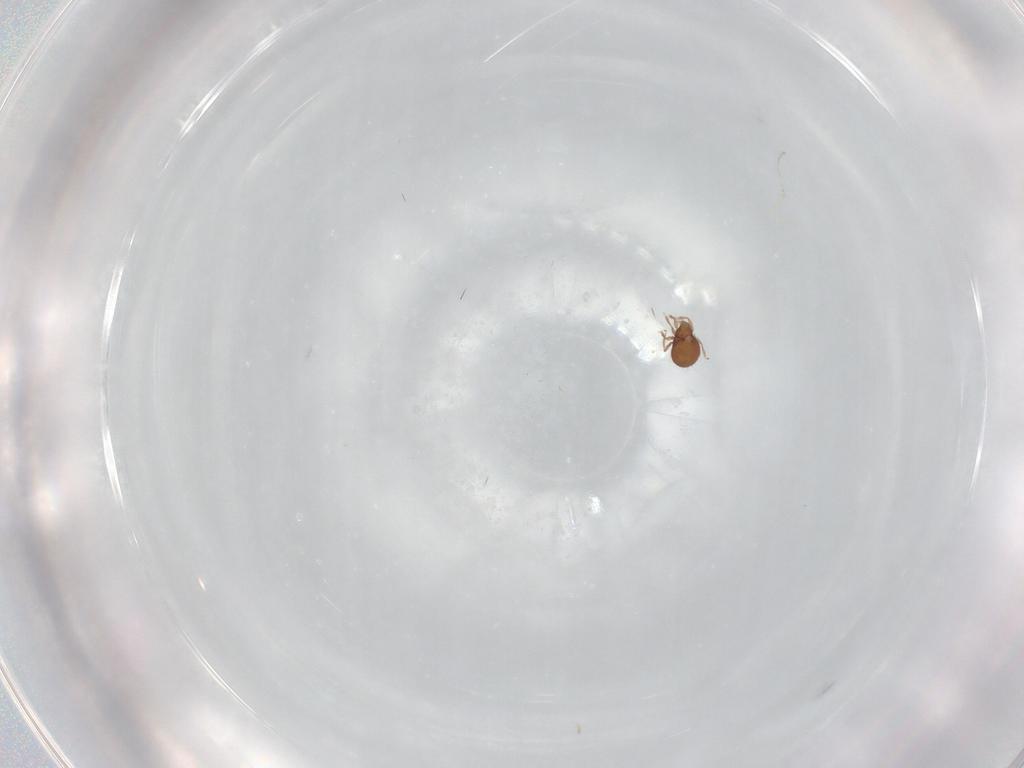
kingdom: Animalia
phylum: Arthropoda
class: Arachnida
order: Sarcoptiformes
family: Oribatulidae
